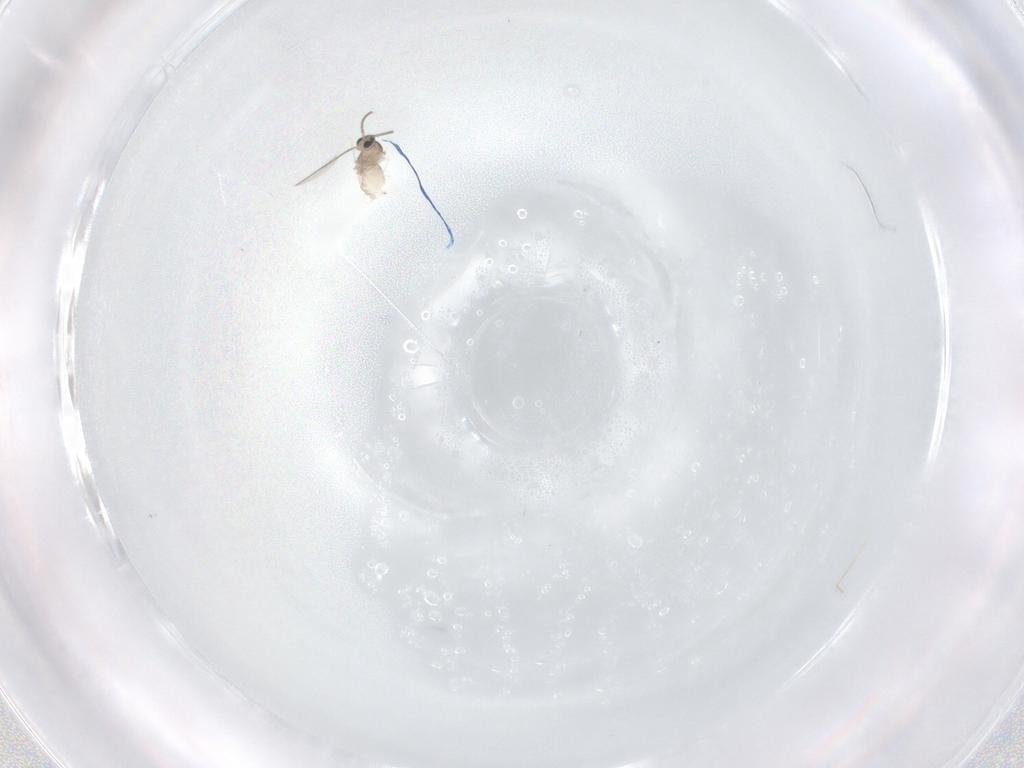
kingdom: Animalia
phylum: Arthropoda
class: Insecta
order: Diptera
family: Cecidomyiidae
